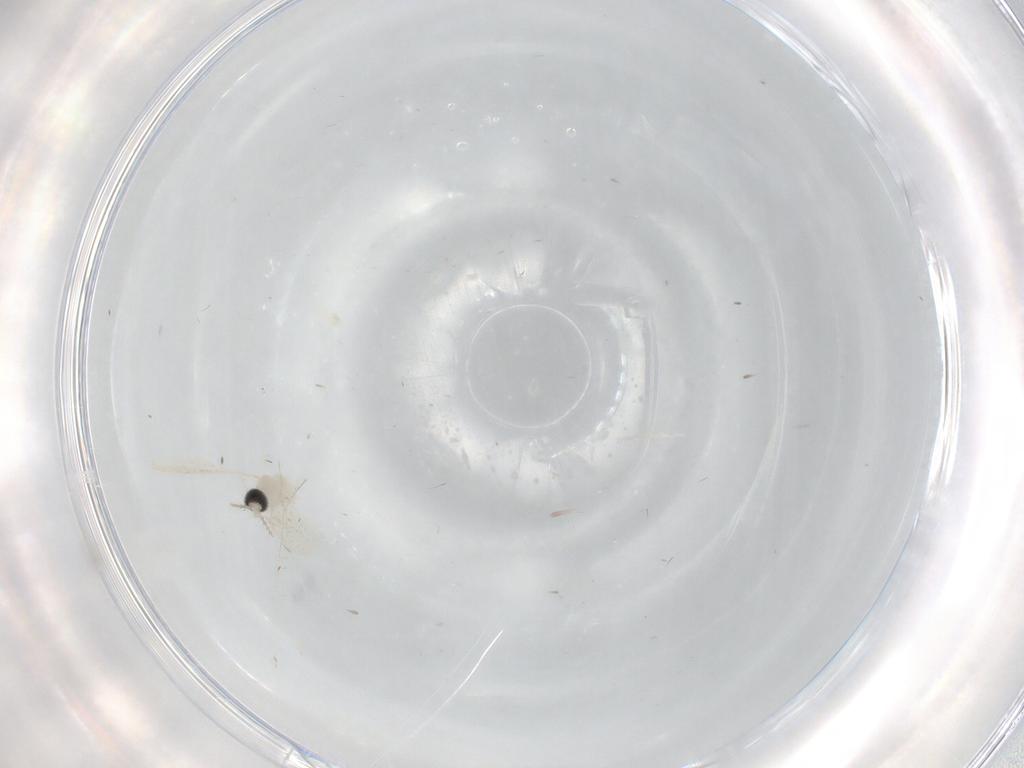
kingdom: Animalia
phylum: Arthropoda
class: Insecta
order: Diptera
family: Cecidomyiidae
